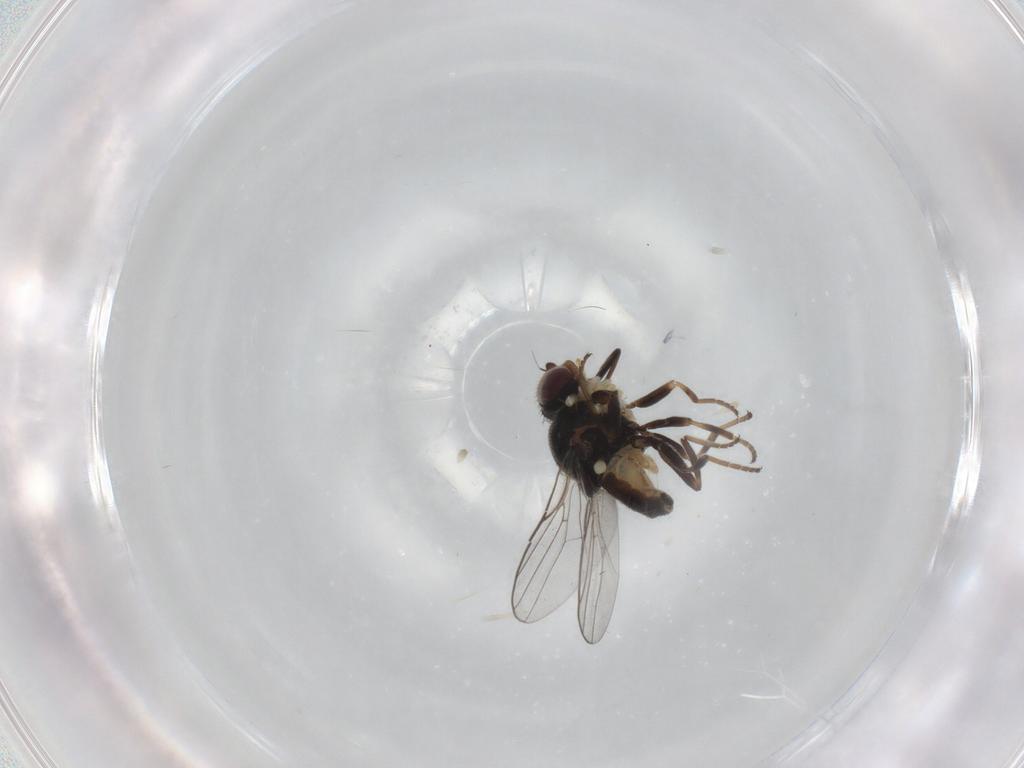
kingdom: Animalia
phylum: Arthropoda
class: Insecta
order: Diptera
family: Chloropidae
